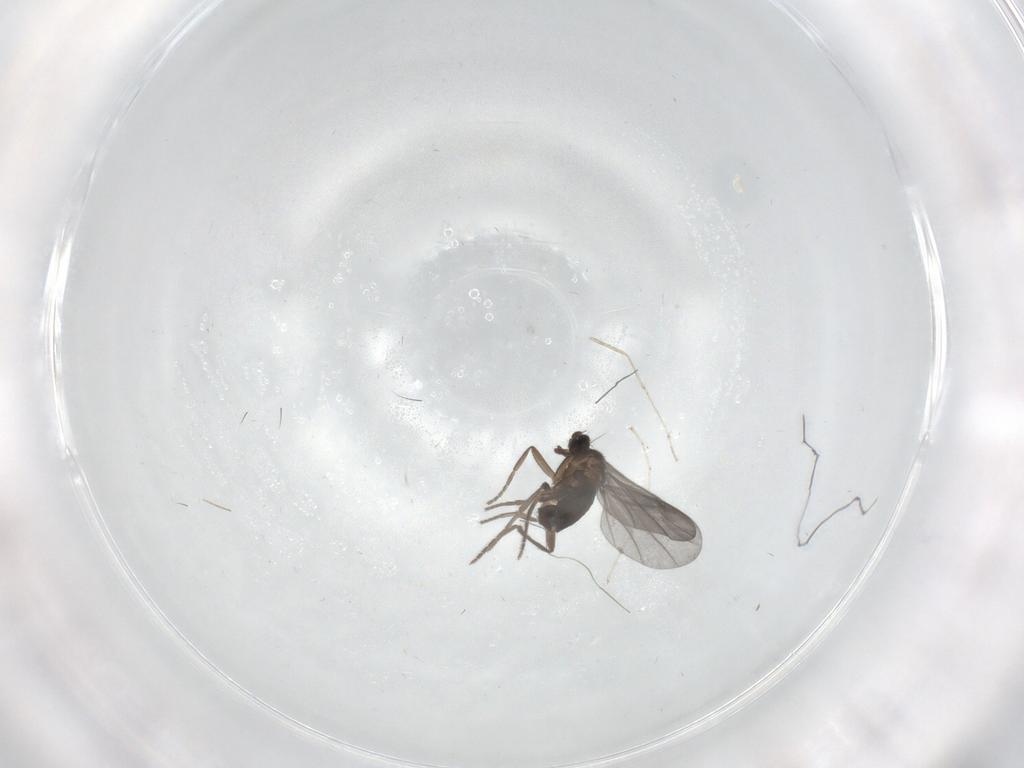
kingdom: Animalia
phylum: Arthropoda
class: Insecta
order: Diptera
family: Phoridae
